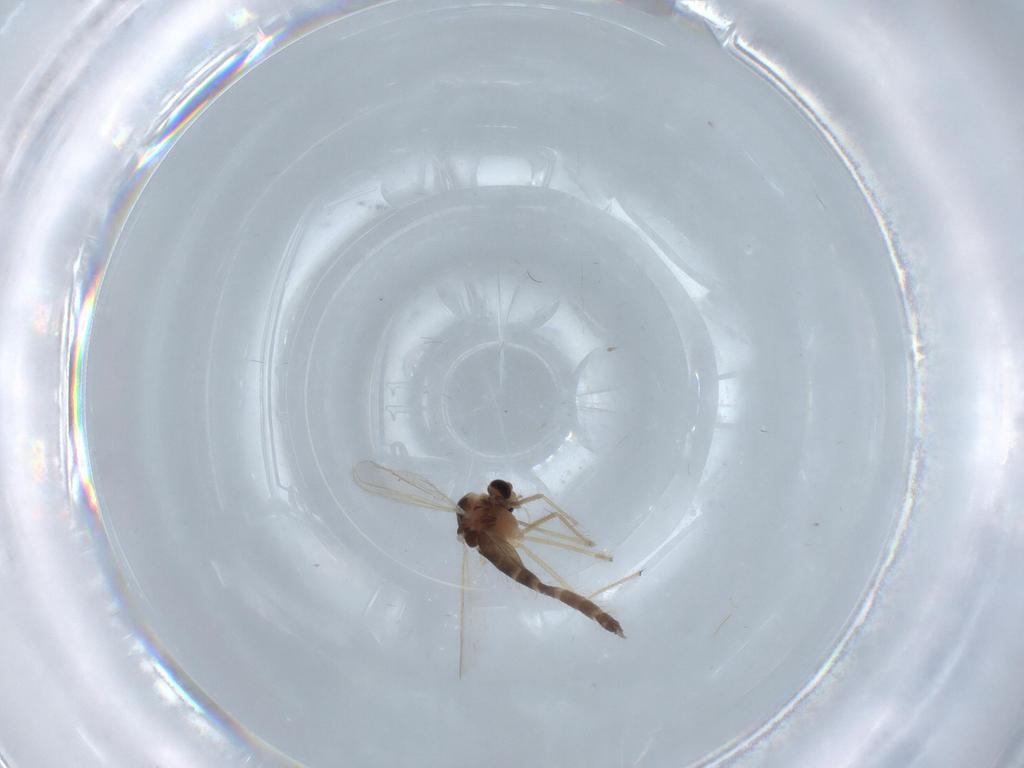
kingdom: Animalia
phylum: Arthropoda
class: Insecta
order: Diptera
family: Chironomidae
